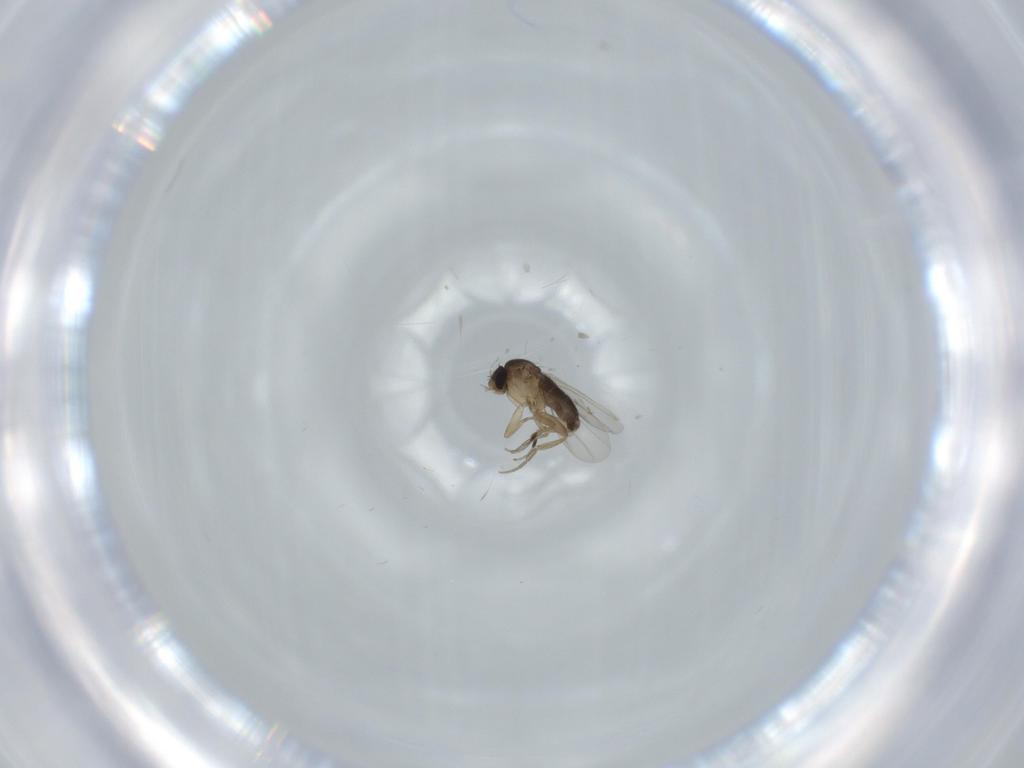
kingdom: Animalia
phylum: Arthropoda
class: Insecta
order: Diptera
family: Phoridae
